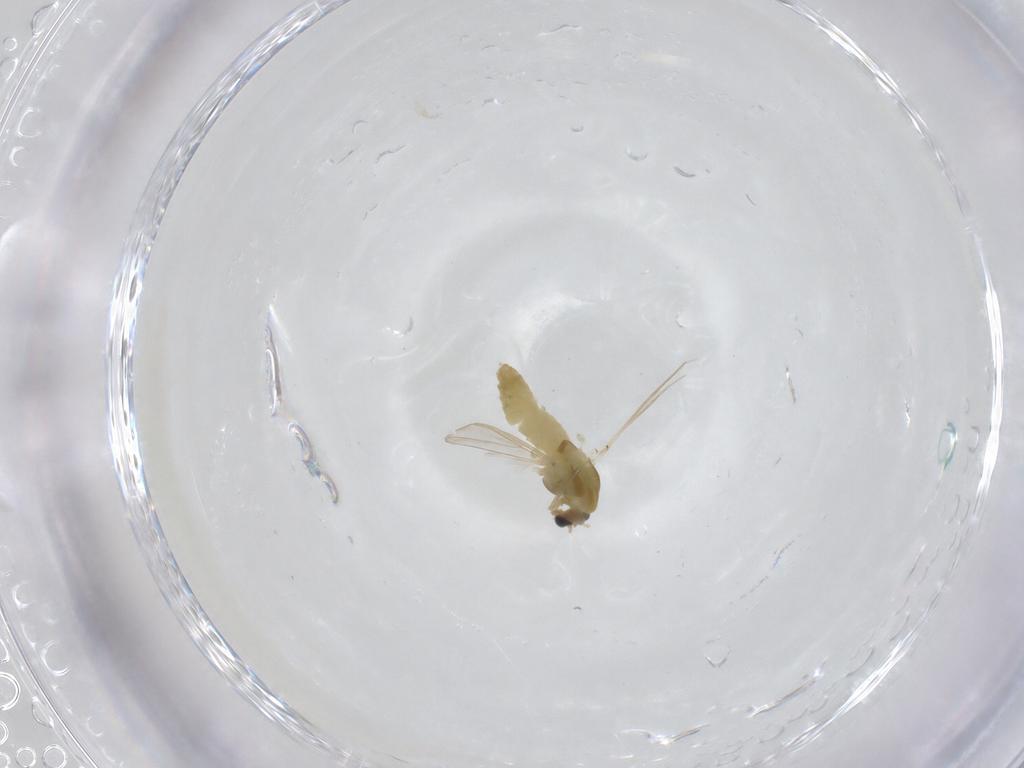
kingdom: Animalia
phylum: Arthropoda
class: Insecta
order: Diptera
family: Chironomidae
